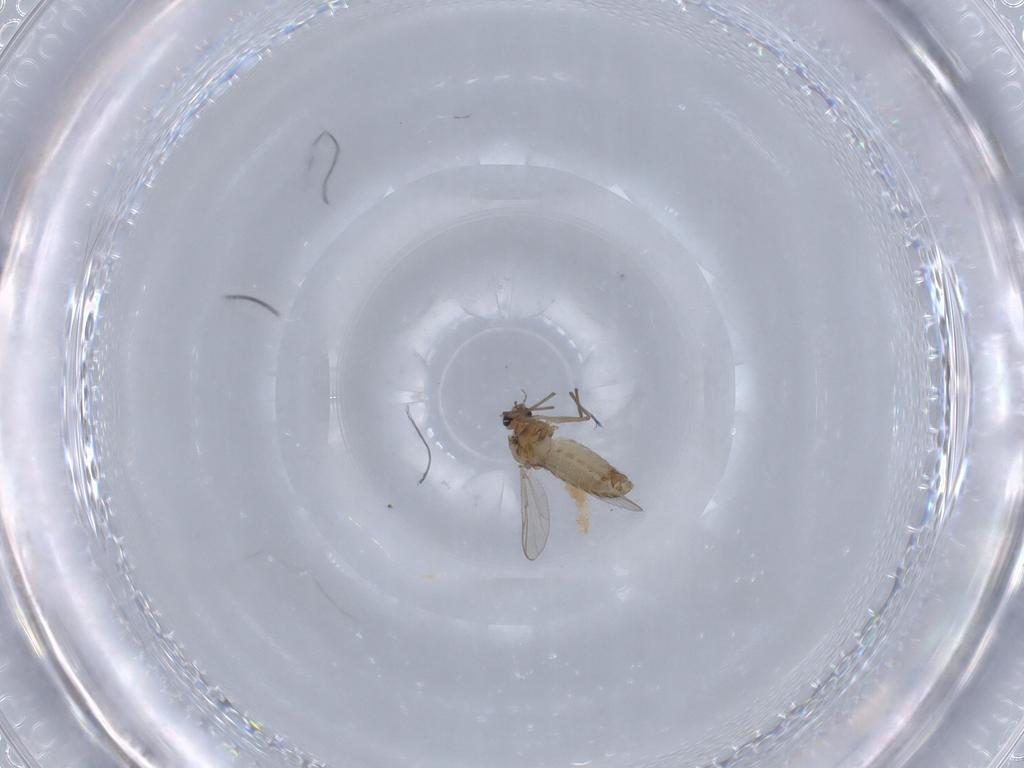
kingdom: Animalia
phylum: Arthropoda
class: Insecta
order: Diptera
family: Chironomidae
